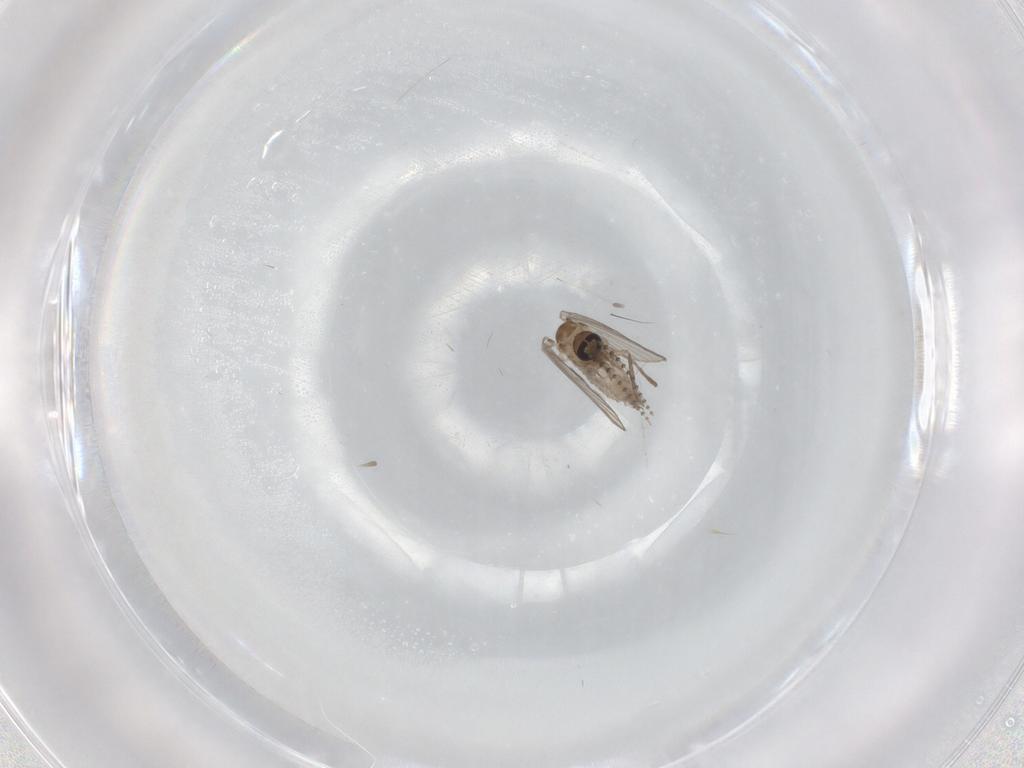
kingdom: Animalia
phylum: Arthropoda
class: Insecta
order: Diptera
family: Psychodidae
